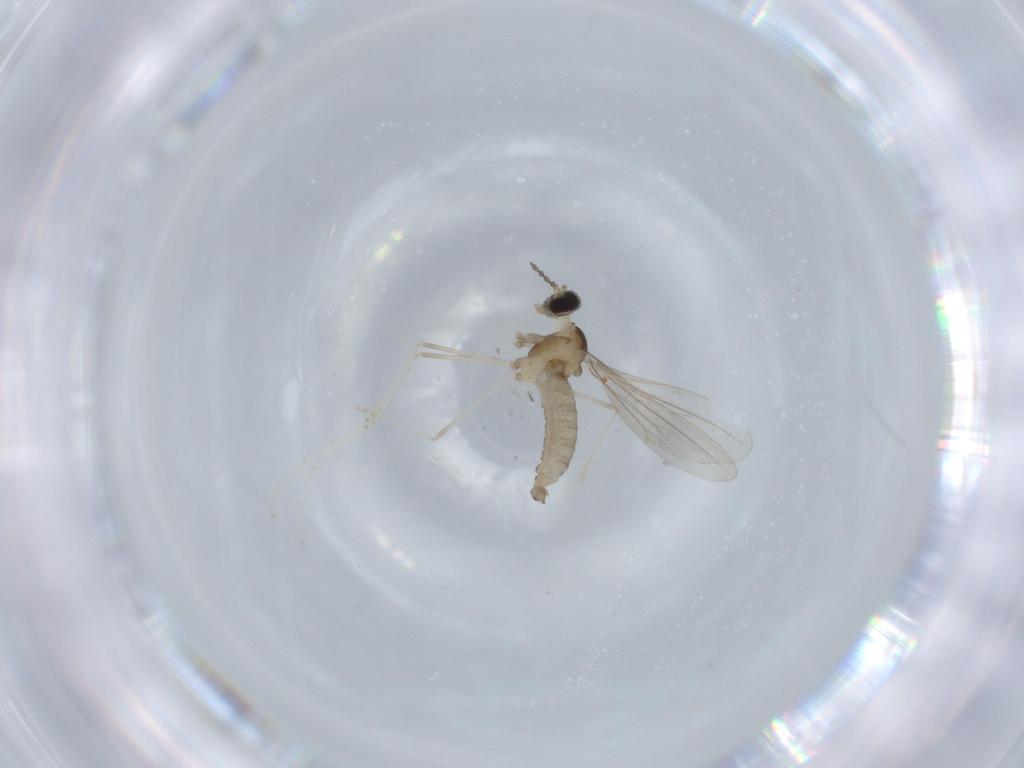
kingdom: Animalia
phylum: Arthropoda
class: Insecta
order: Diptera
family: Cecidomyiidae
